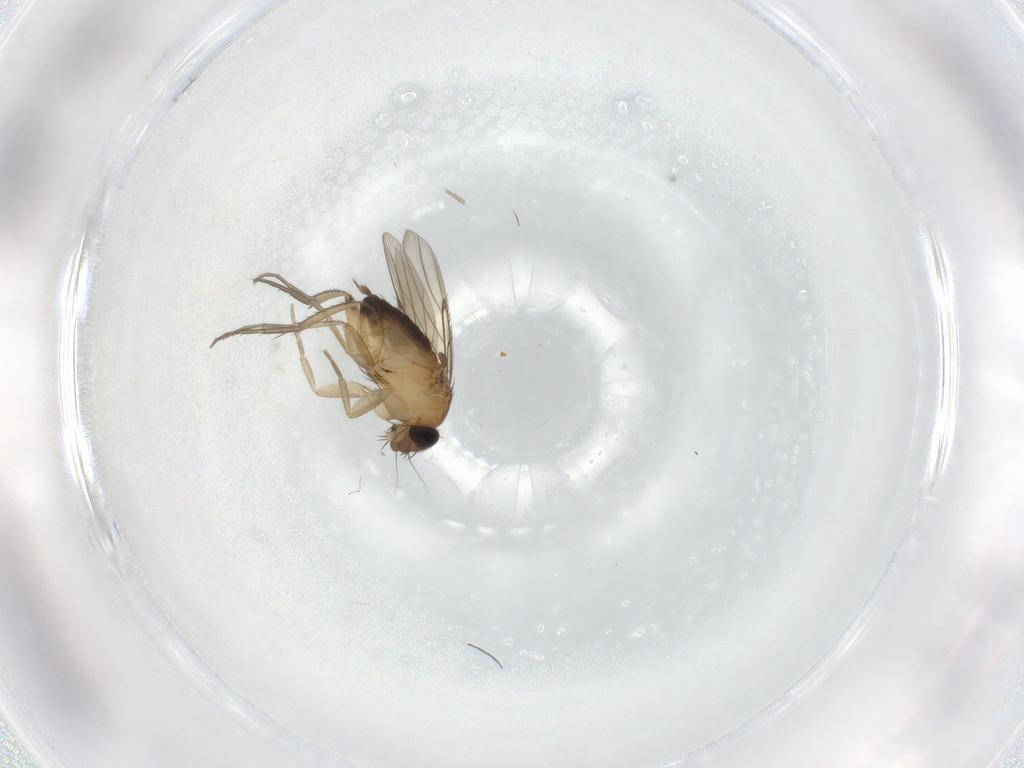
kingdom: Animalia
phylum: Arthropoda
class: Insecta
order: Diptera
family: Phoridae
